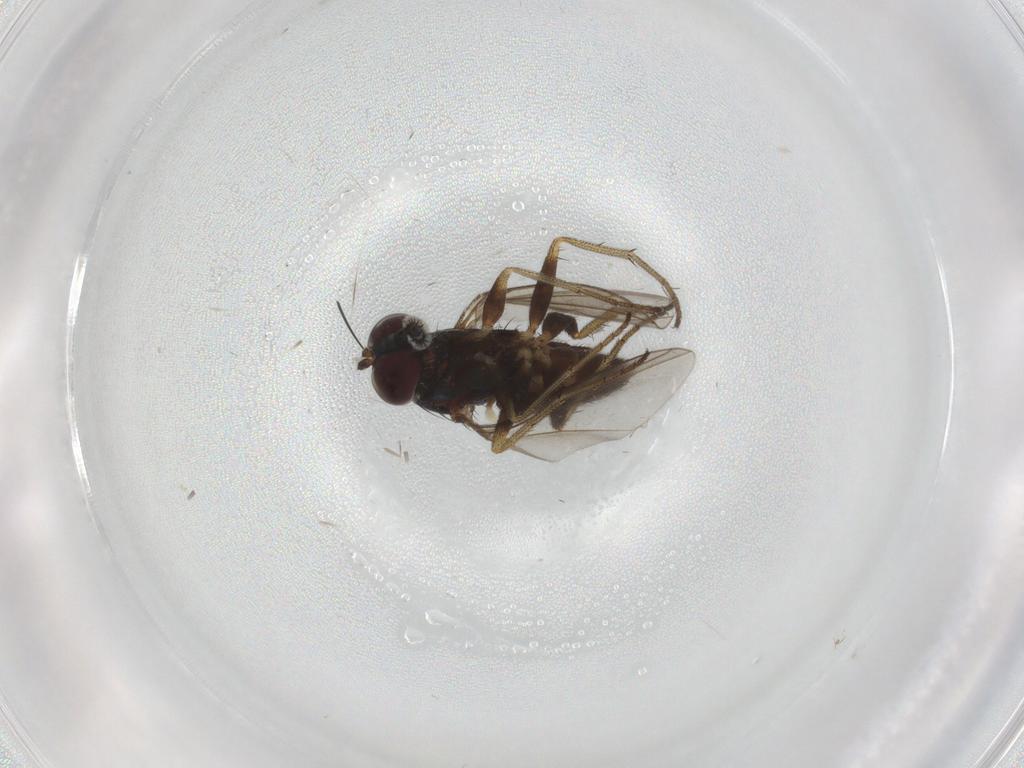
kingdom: Animalia
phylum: Arthropoda
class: Insecta
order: Diptera
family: Dolichopodidae
